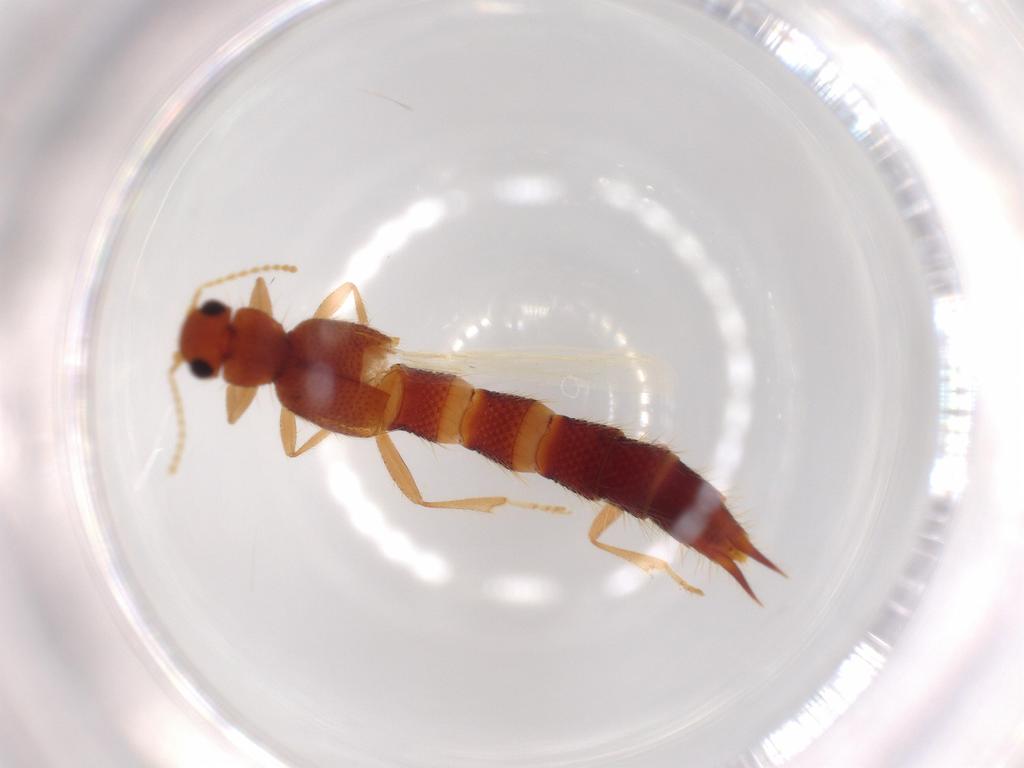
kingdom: Animalia
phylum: Arthropoda
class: Insecta
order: Coleoptera
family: Staphylinidae
